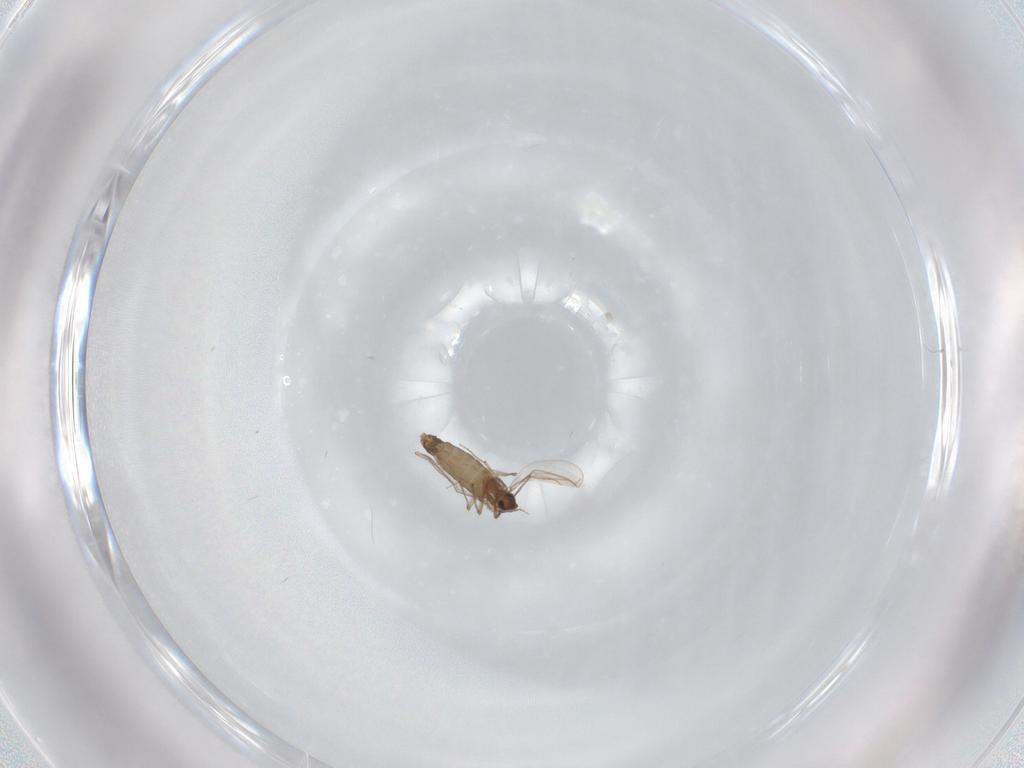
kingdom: Animalia
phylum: Arthropoda
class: Insecta
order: Diptera
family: Chironomidae
